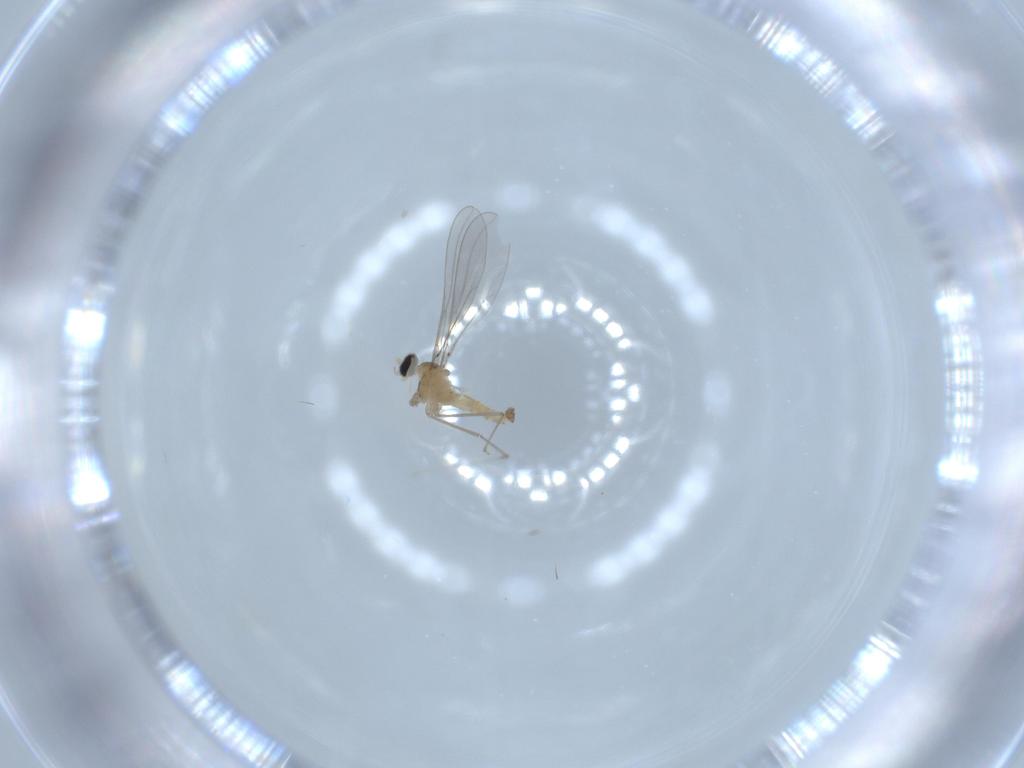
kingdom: Animalia
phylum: Arthropoda
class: Insecta
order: Diptera
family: Cecidomyiidae
